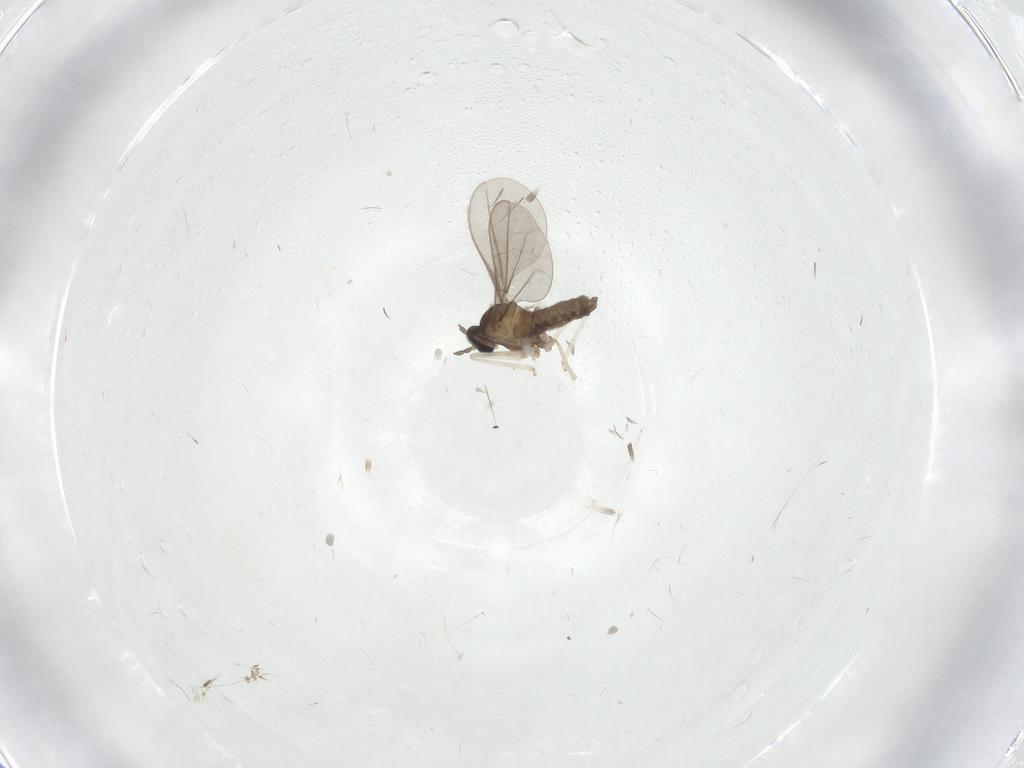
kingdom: Animalia
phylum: Arthropoda
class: Insecta
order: Diptera
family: Cecidomyiidae
